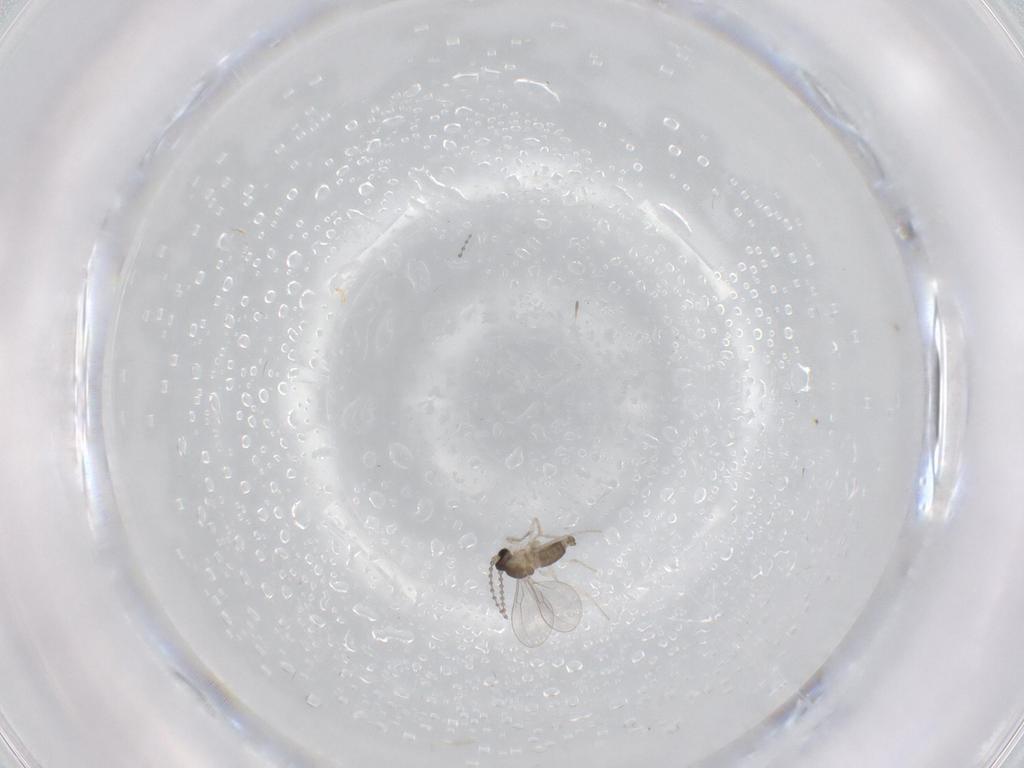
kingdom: Animalia
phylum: Arthropoda
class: Insecta
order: Diptera
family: Cecidomyiidae
